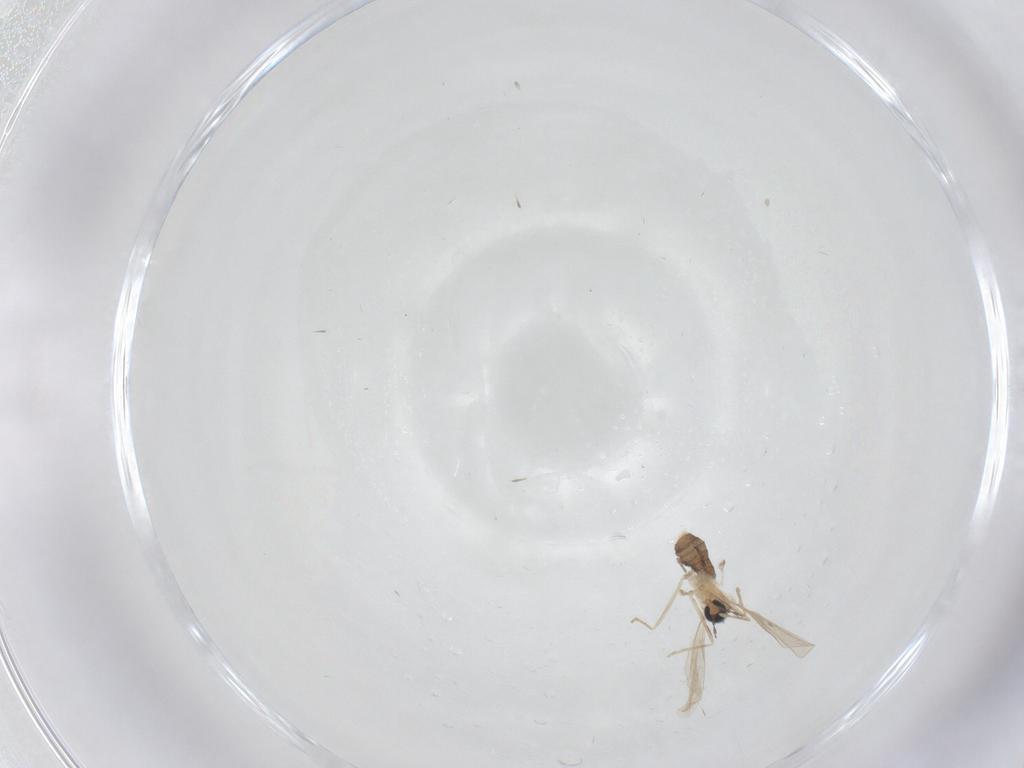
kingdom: Animalia
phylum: Arthropoda
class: Insecta
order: Diptera
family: Cecidomyiidae
